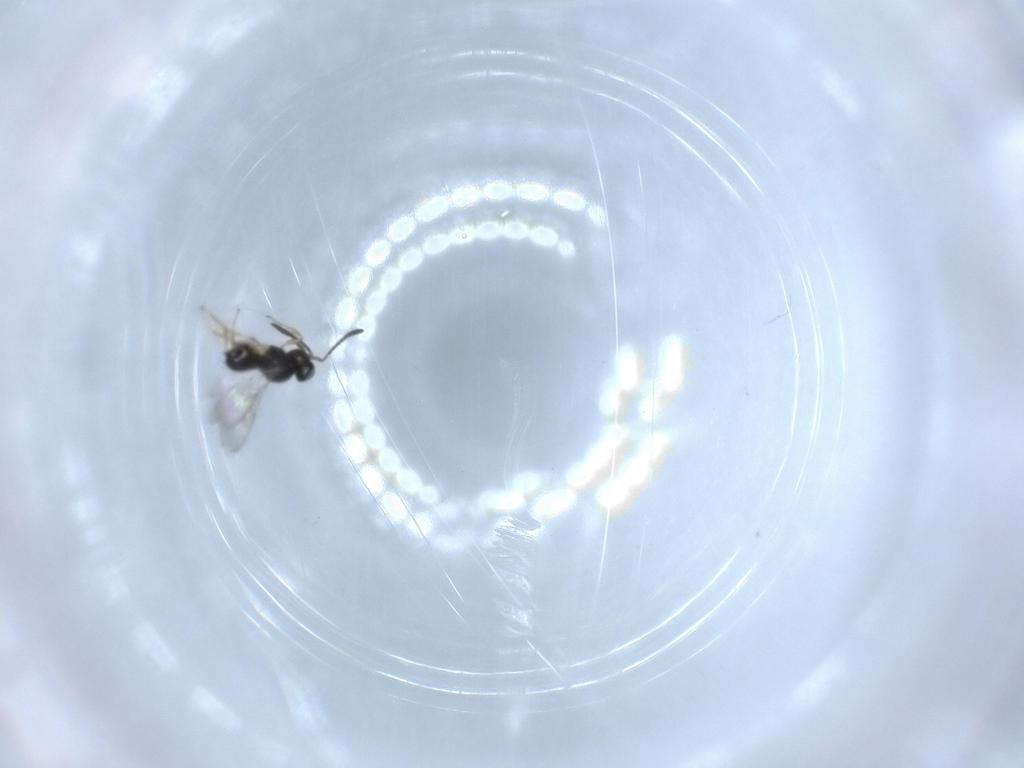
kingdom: Animalia
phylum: Arthropoda
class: Insecta
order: Hymenoptera
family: Scelionidae
